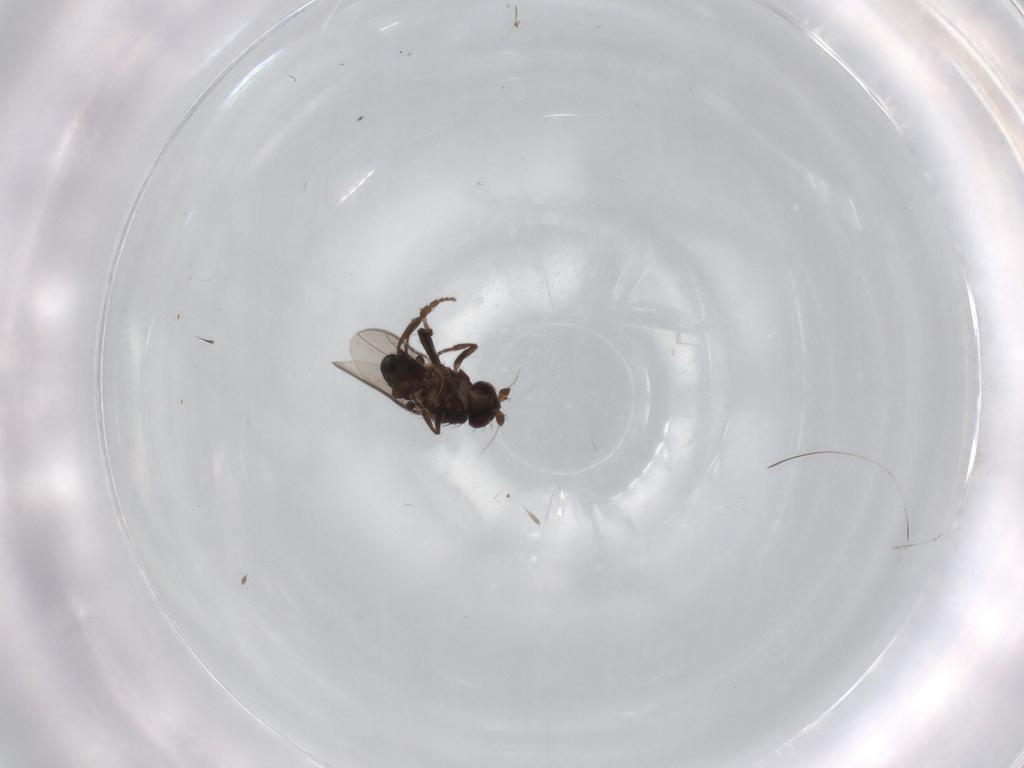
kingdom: Animalia
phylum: Arthropoda
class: Insecta
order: Diptera
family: Sphaeroceridae
